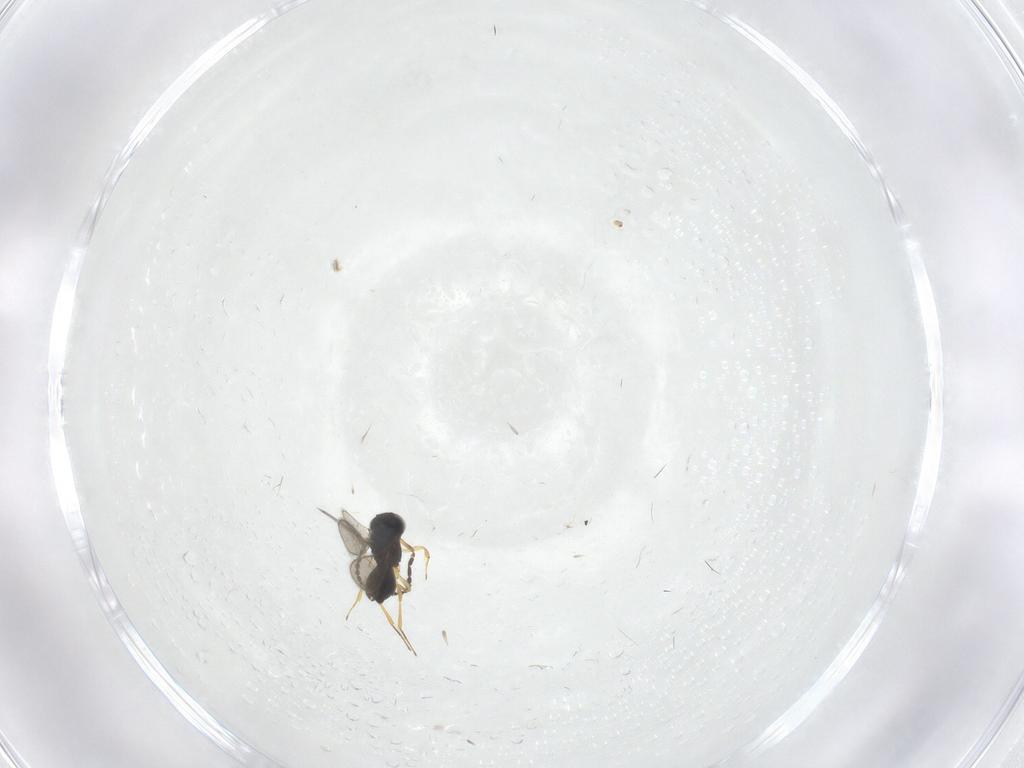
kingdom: Animalia
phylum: Arthropoda
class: Insecta
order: Hymenoptera
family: Scelionidae
